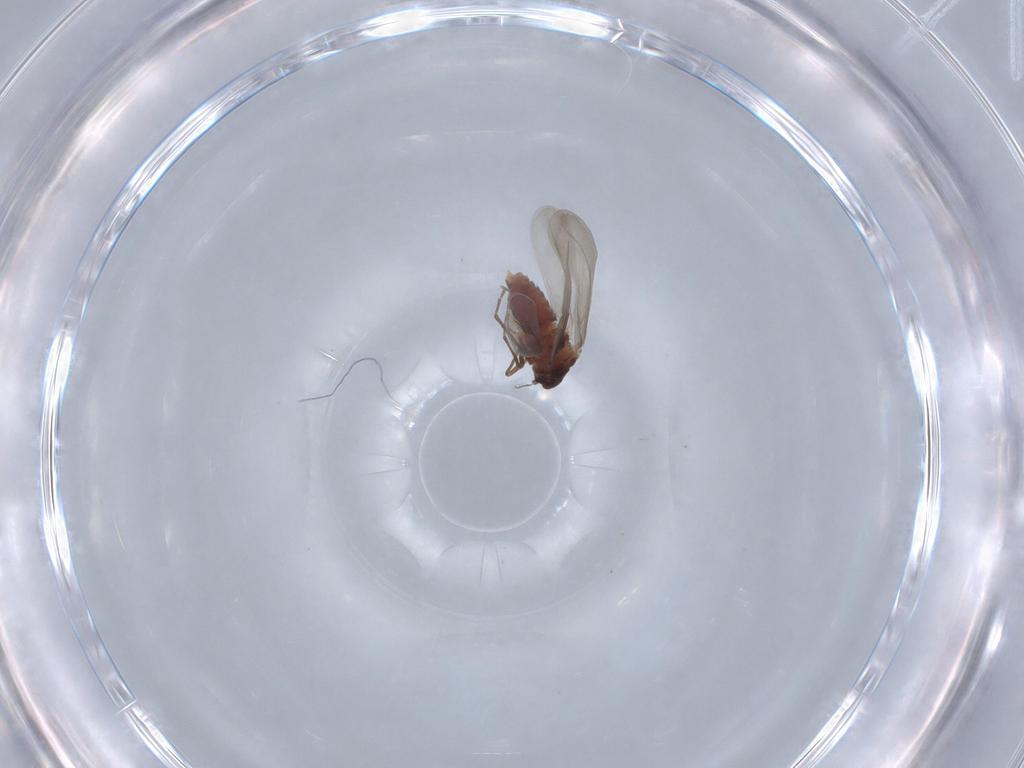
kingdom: Animalia
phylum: Arthropoda
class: Insecta
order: Hemiptera
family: Aleyrodidae
